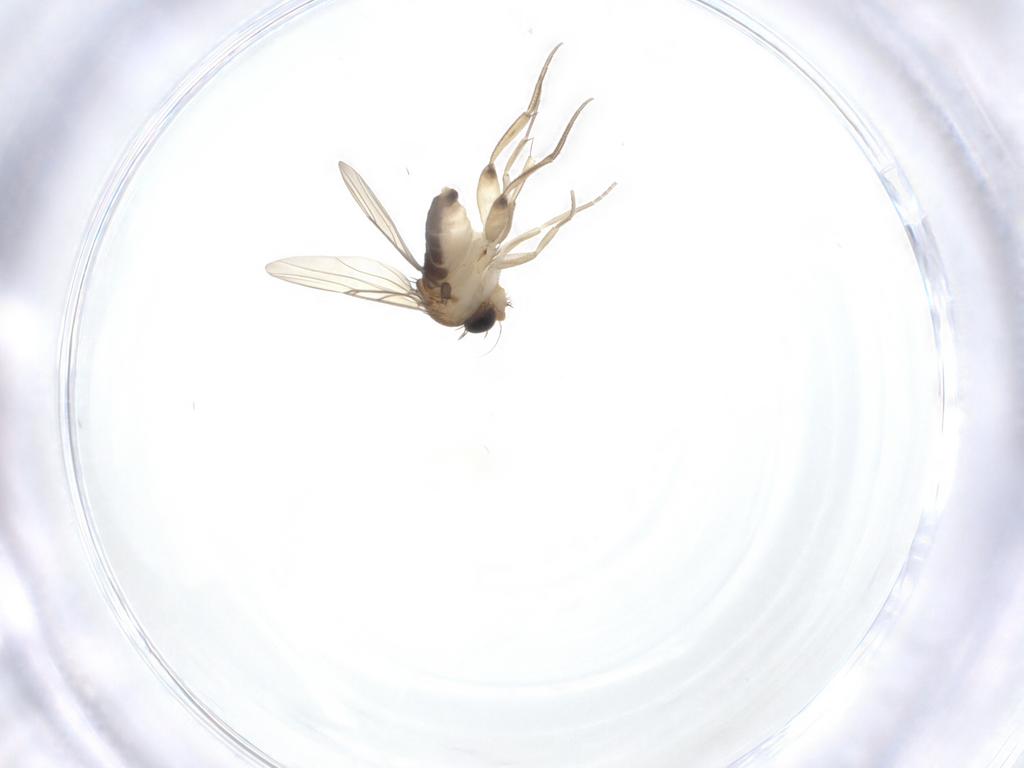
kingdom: Animalia
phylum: Arthropoda
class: Insecta
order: Diptera
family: Phoridae
